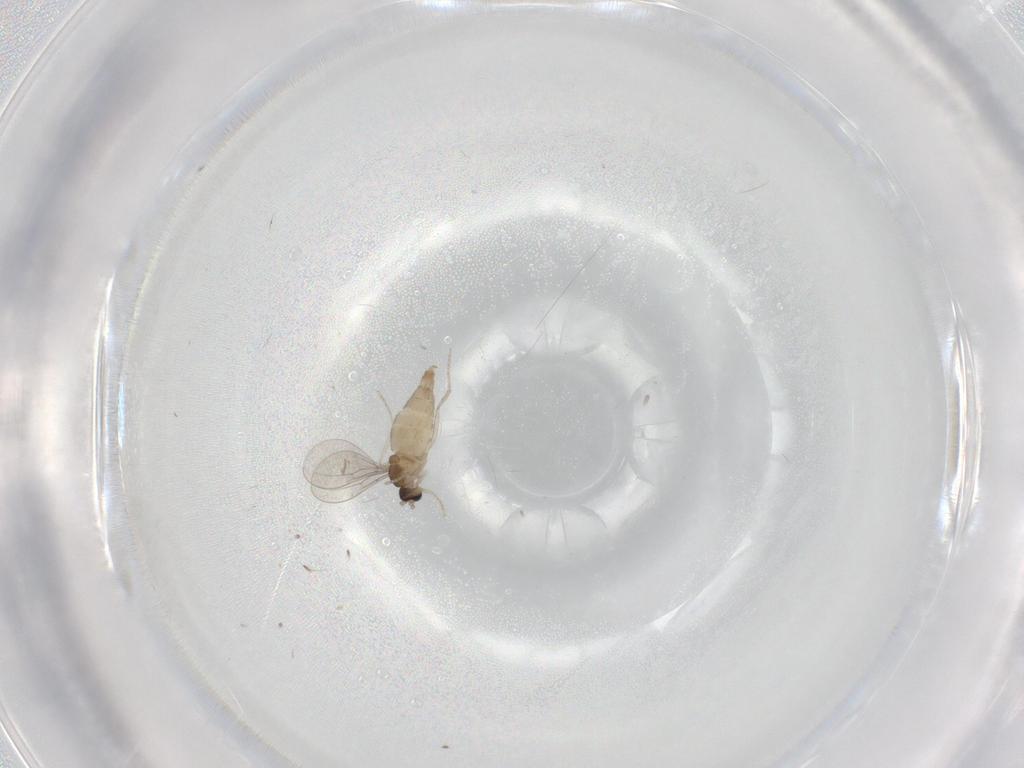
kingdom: Animalia
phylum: Arthropoda
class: Insecta
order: Diptera
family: Cecidomyiidae
